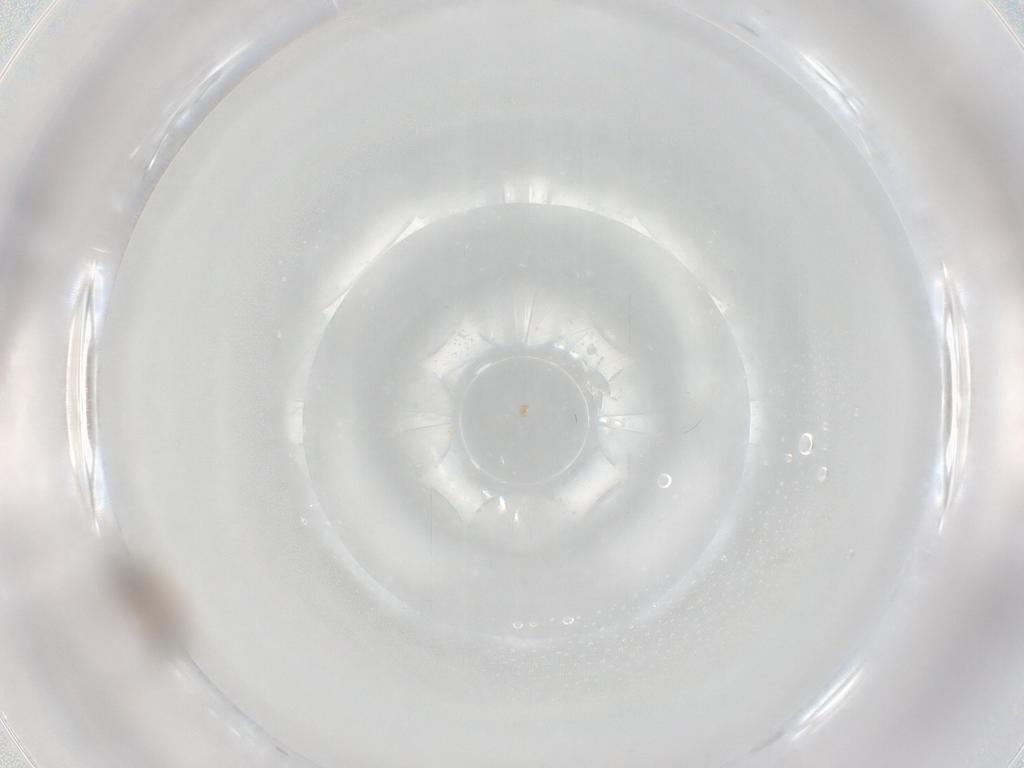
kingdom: Animalia
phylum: Arthropoda
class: Insecta
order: Hymenoptera
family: Formicidae
